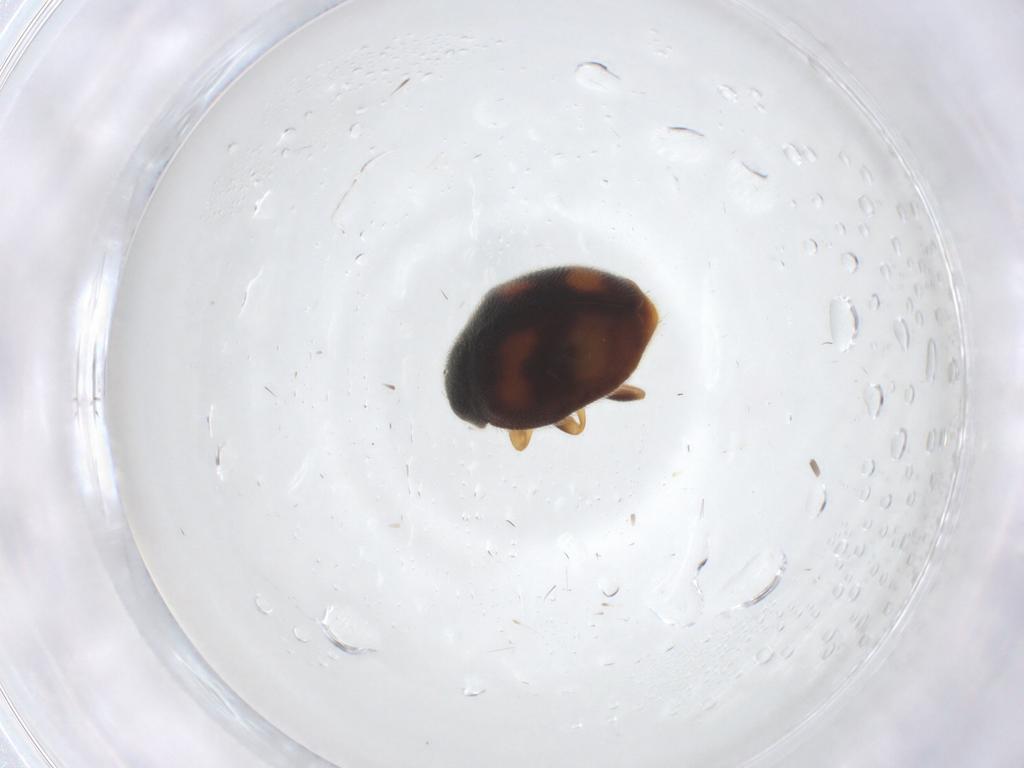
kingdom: Animalia
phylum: Arthropoda
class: Insecta
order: Coleoptera
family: Coccinellidae
